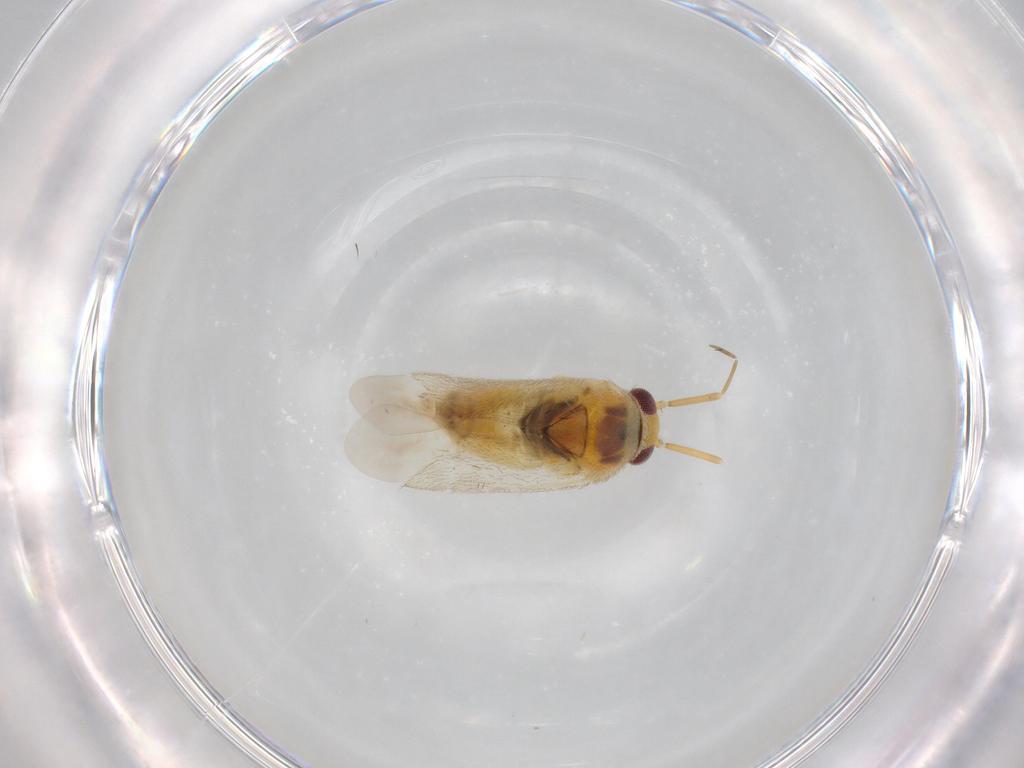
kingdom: Animalia
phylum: Arthropoda
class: Insecta
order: Hemiptera
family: Miridae
